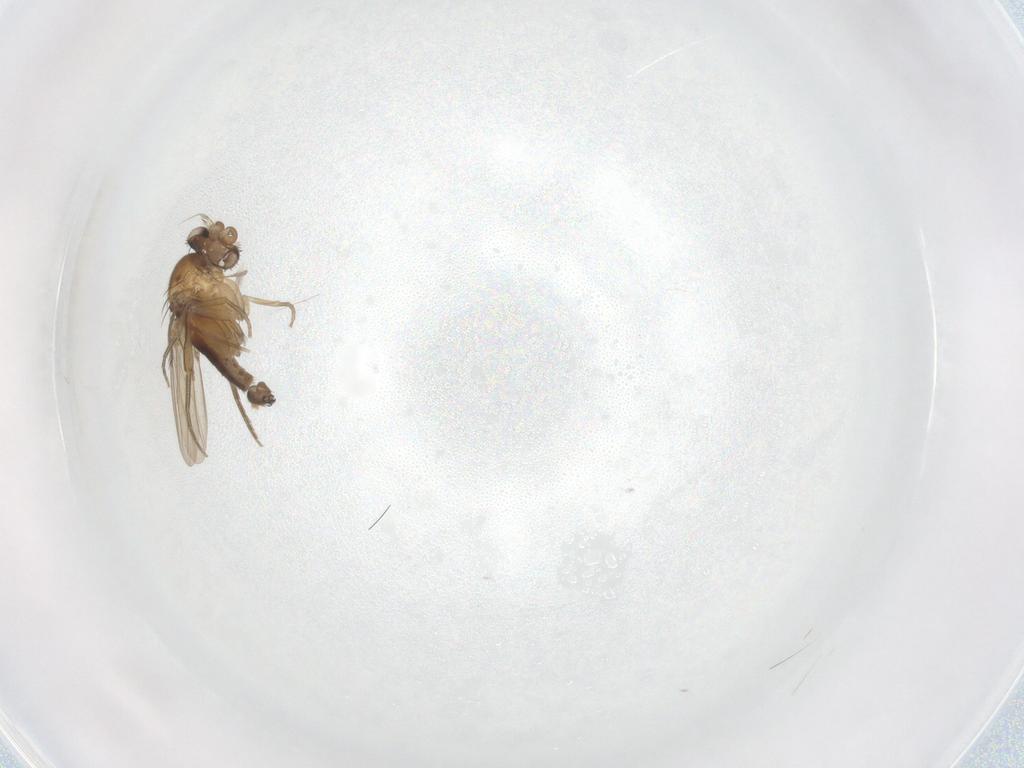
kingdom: Animalia
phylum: Arthropoda
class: Insecta
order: Diptera
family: Phoridae
